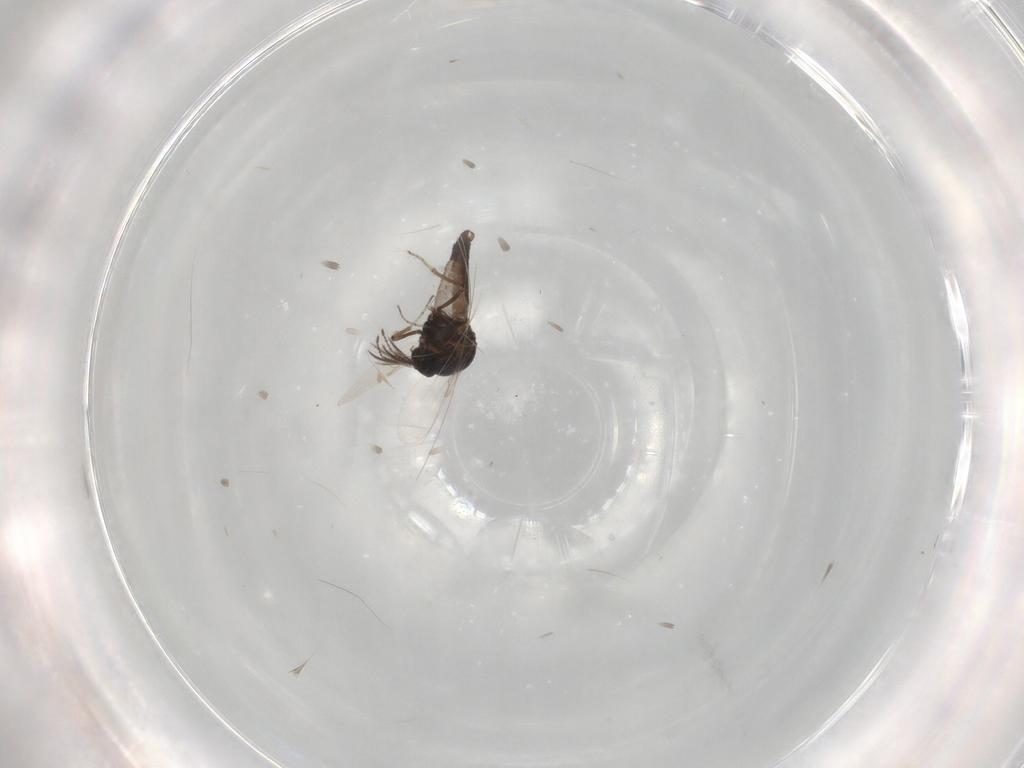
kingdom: Animalia
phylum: Arthropoda
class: Insecta
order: Diptera
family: Ceratopogonidae
